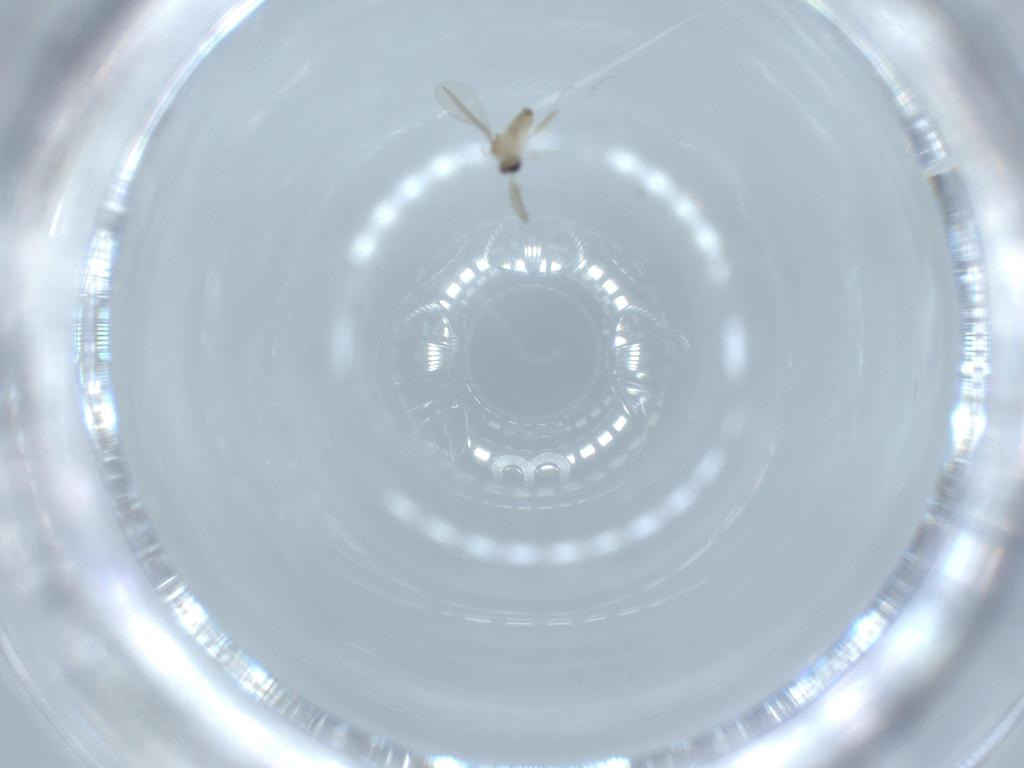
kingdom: Animalia
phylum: Arthropoda
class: Insecta
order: Diptera
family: Cecidomyiidae
